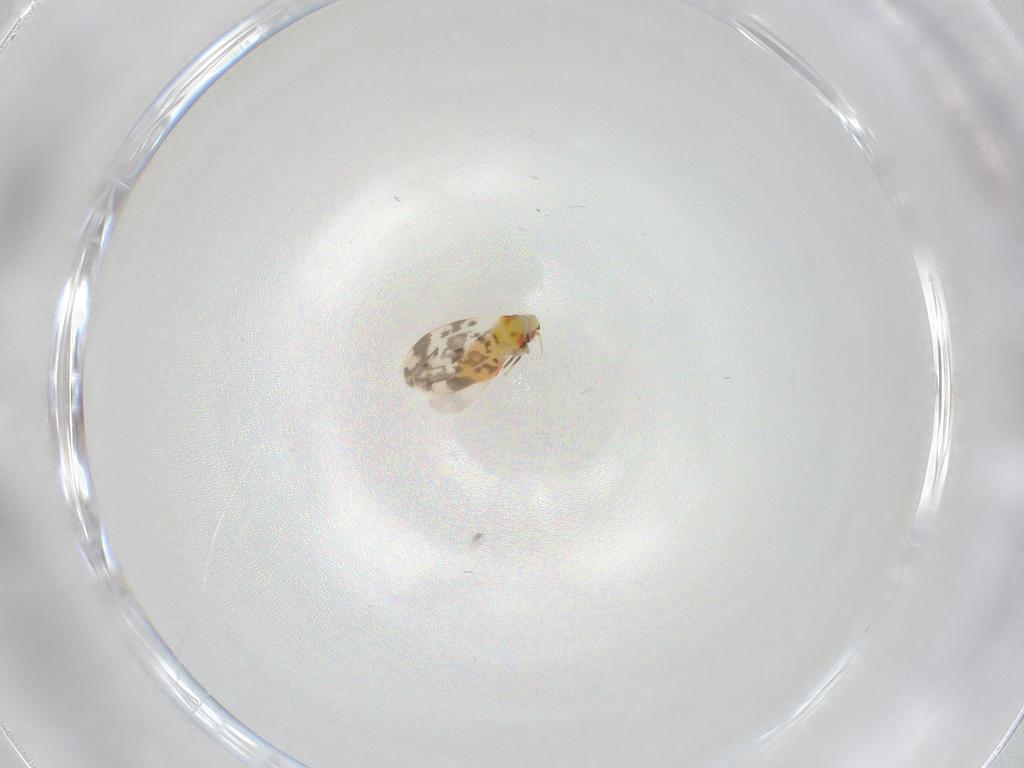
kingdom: Animalia
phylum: Arthropoda
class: Insecta
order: Hemiptera
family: Aleyrodidae
